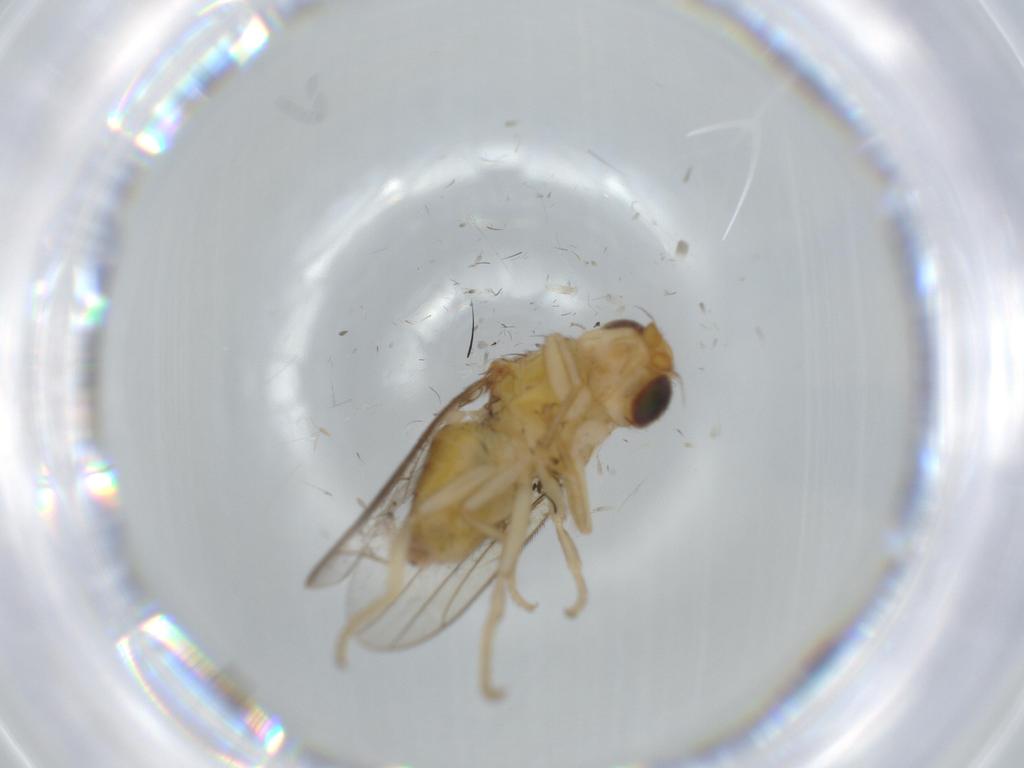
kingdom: Animalia
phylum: Arthropoda
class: Insecta
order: Diptera
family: Chloropidae
